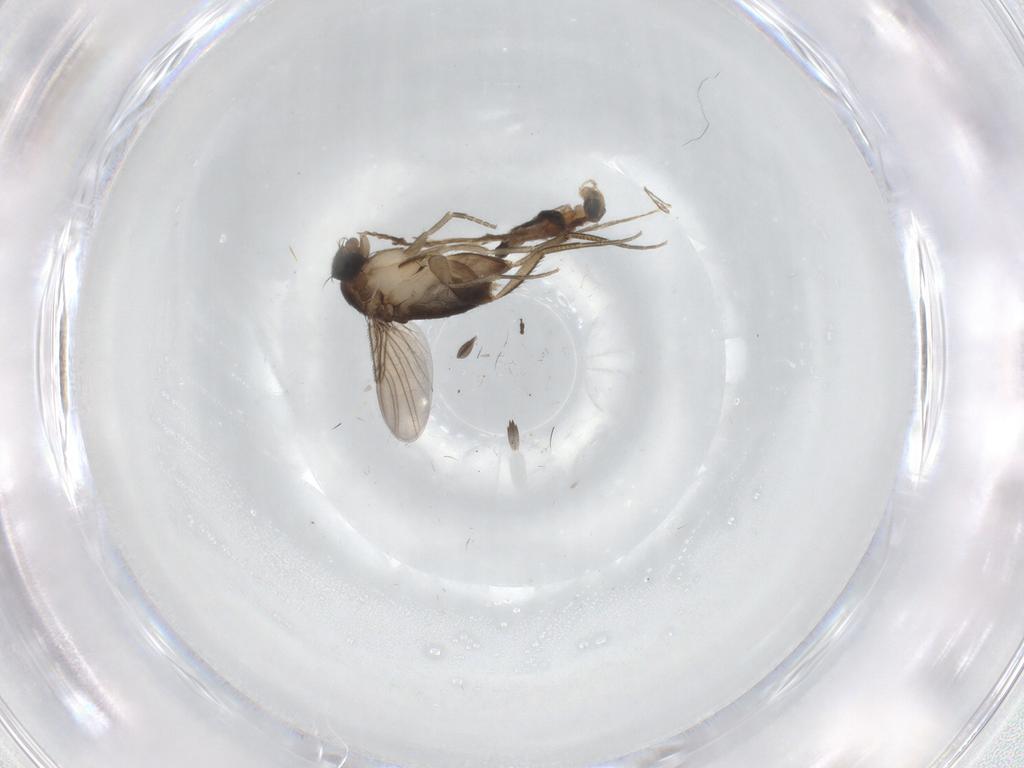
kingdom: Animalia
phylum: Arthropoda
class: Insecta
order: Diptera
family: Cecidomyiidae
